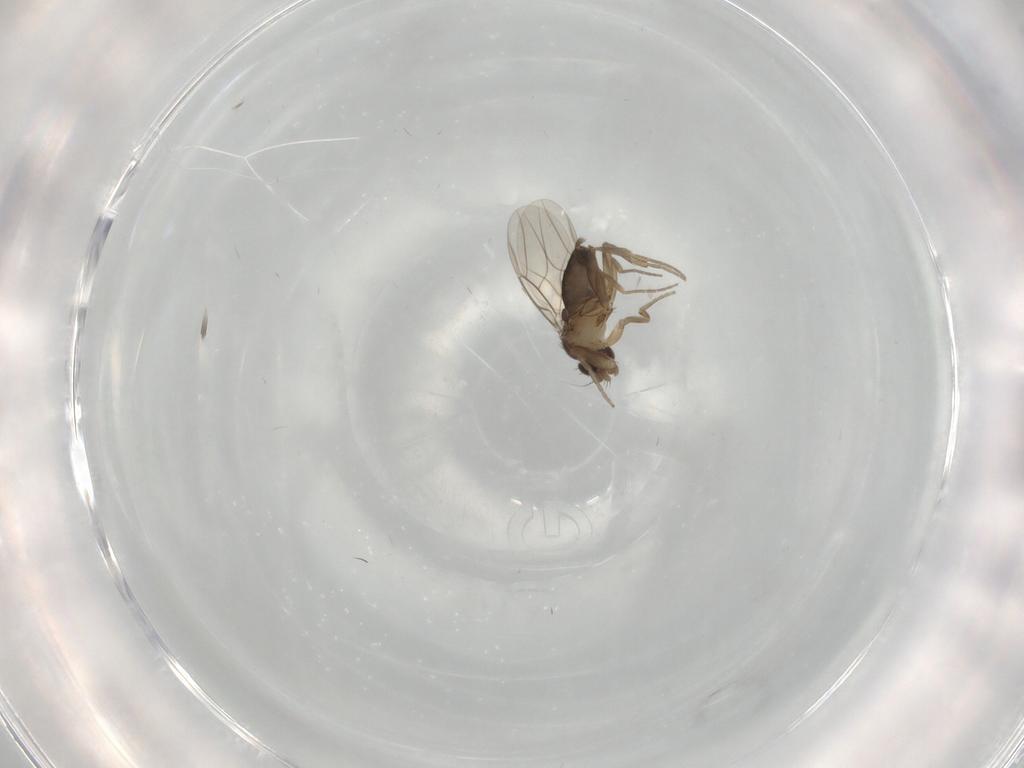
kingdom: Animalia
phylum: Arthropoda
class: Insecta
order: Diptera
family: Phoridae
